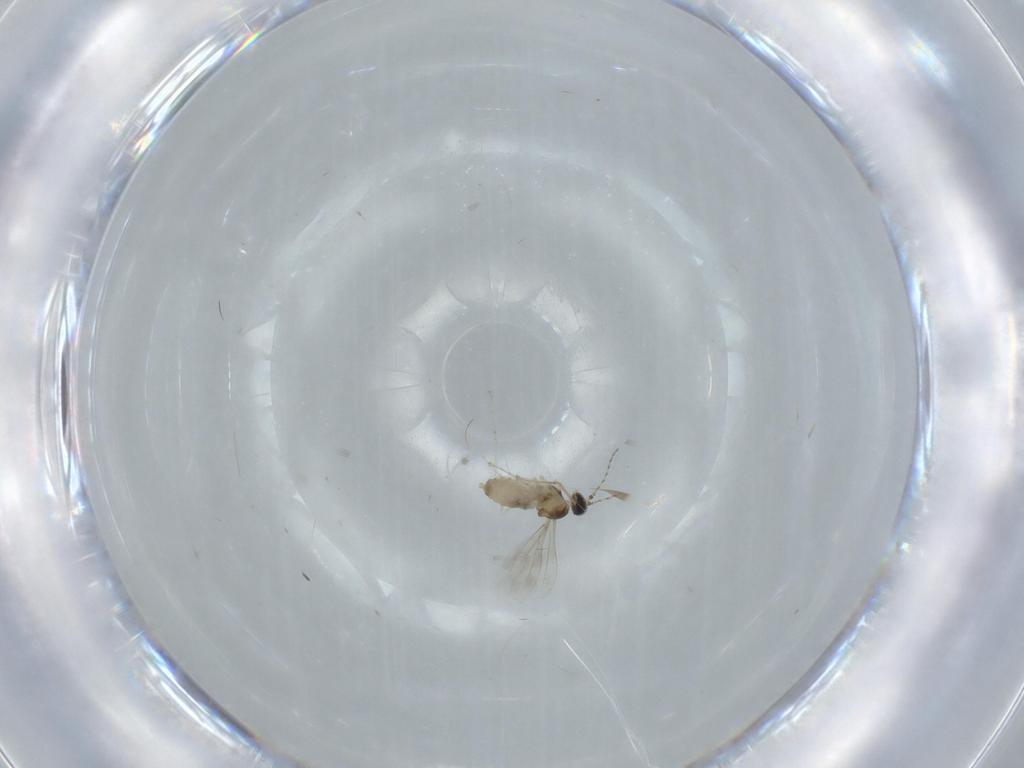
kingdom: Animalia
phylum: Arthropoda
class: Insecta
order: Diptera
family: Cecidomyiidae
